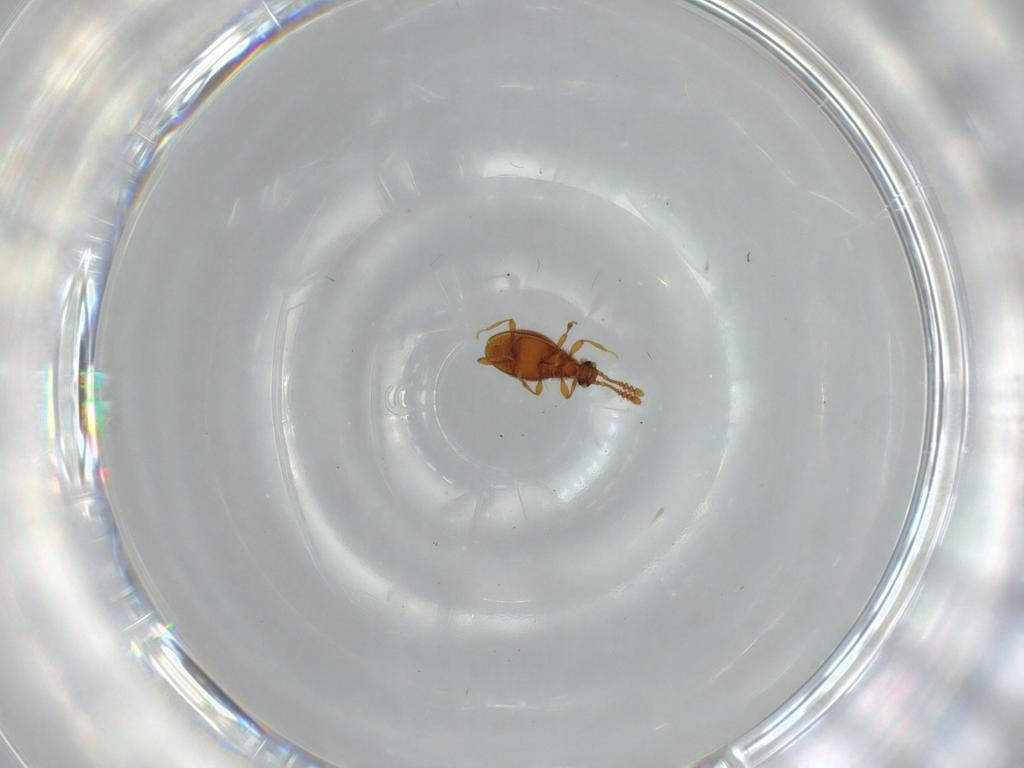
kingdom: Animalia
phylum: Arthropoda
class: Insecta
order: Coleoptera
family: Staphylinidae
